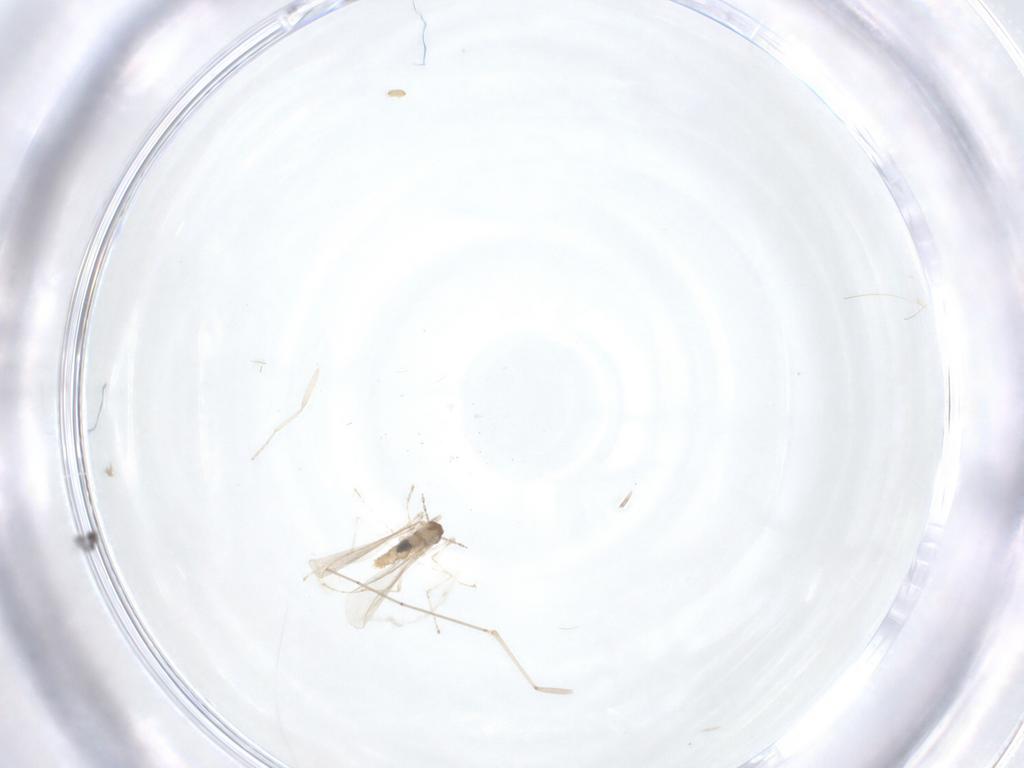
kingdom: Animalia
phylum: Arthropoda
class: Insecta
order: Diptera
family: Cecidomyiidae
